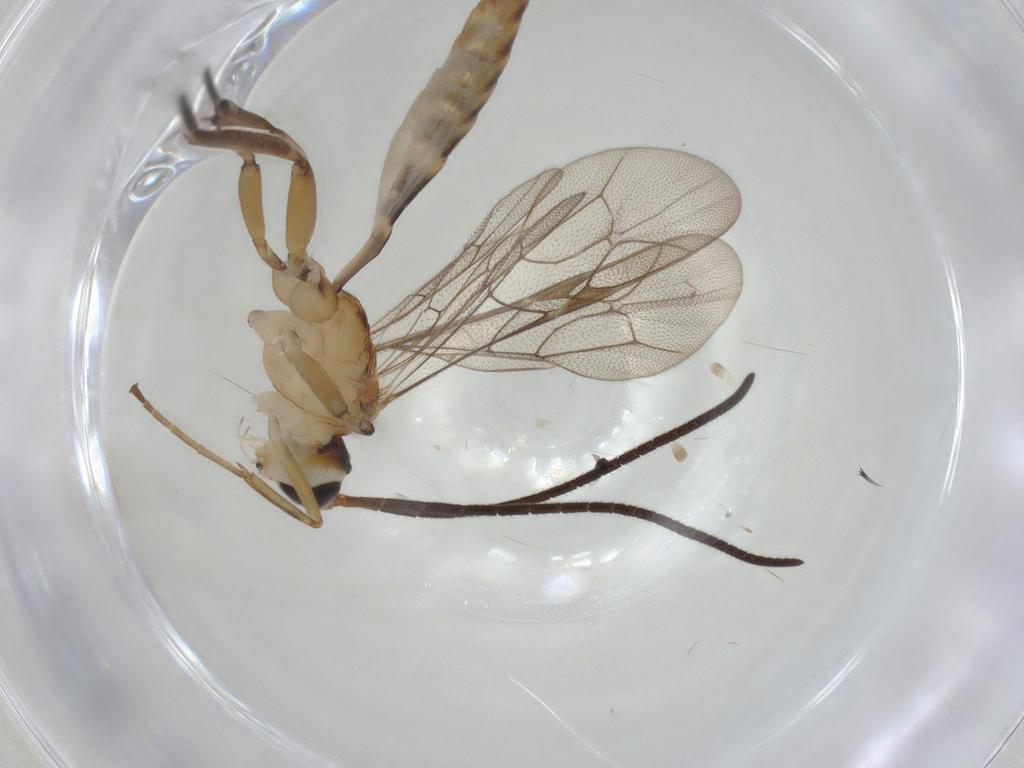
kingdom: Animalia
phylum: Arthropoda
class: Insecta
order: Hymenoptera
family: Ichneumonidae
